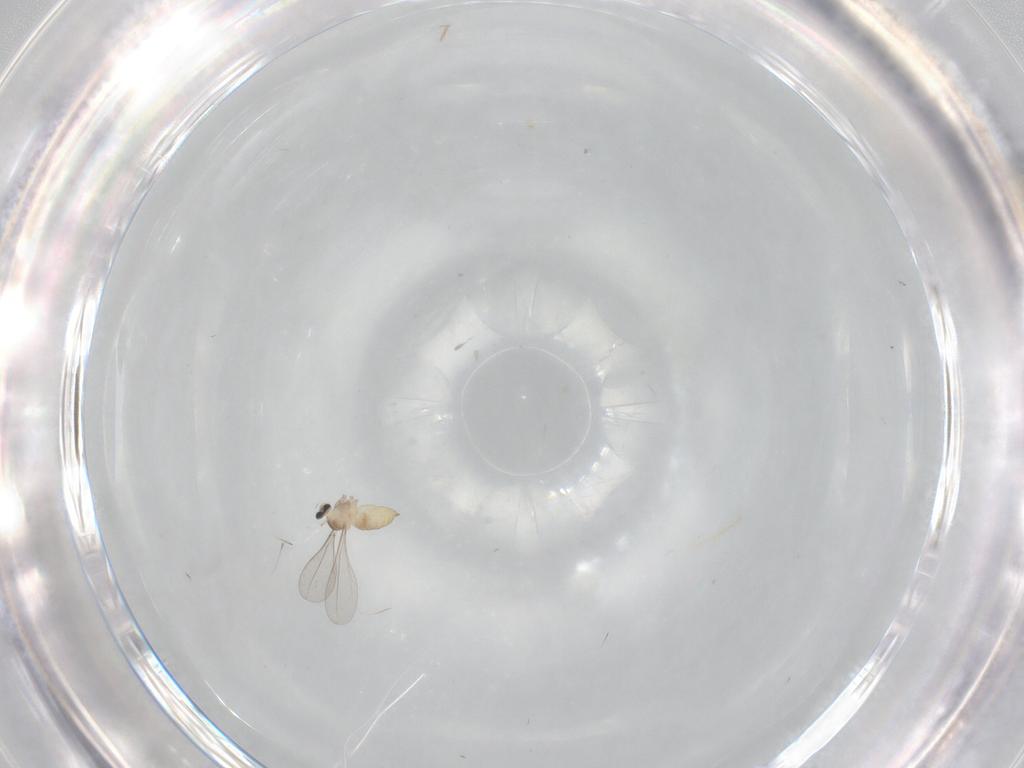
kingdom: Animalia
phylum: Arthropoda
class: Insecta
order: Diptera
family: Cecidomyiidae
